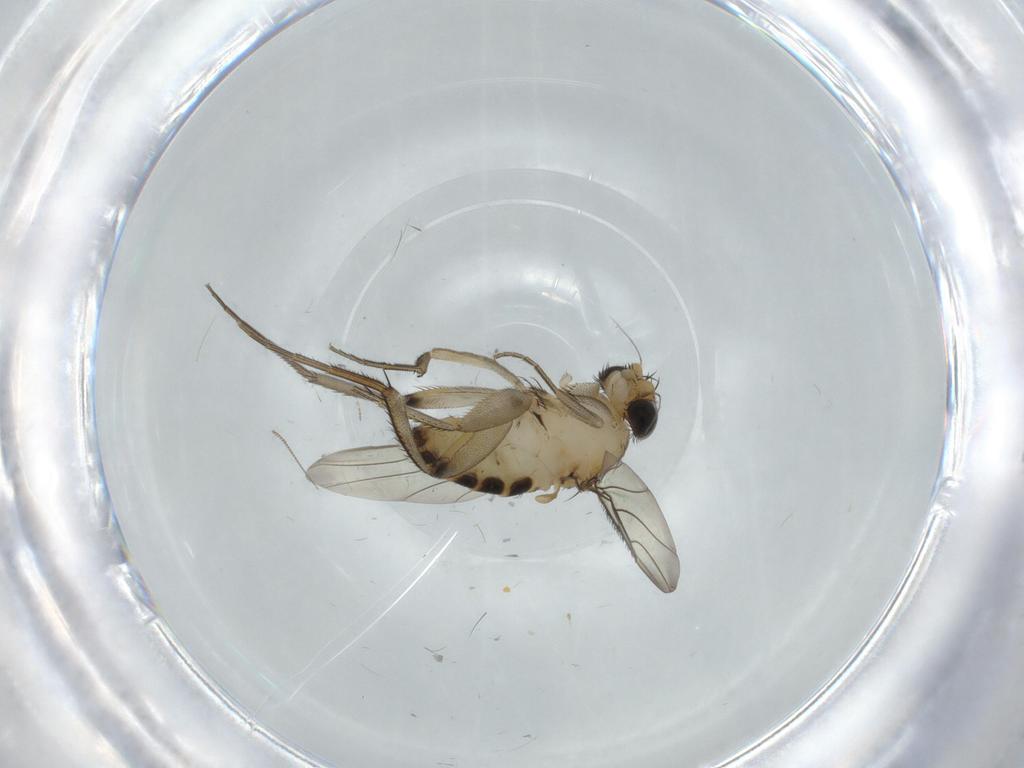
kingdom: Animalia
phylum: Arthropoda
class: Insecta
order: Diptera
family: Phoridae
